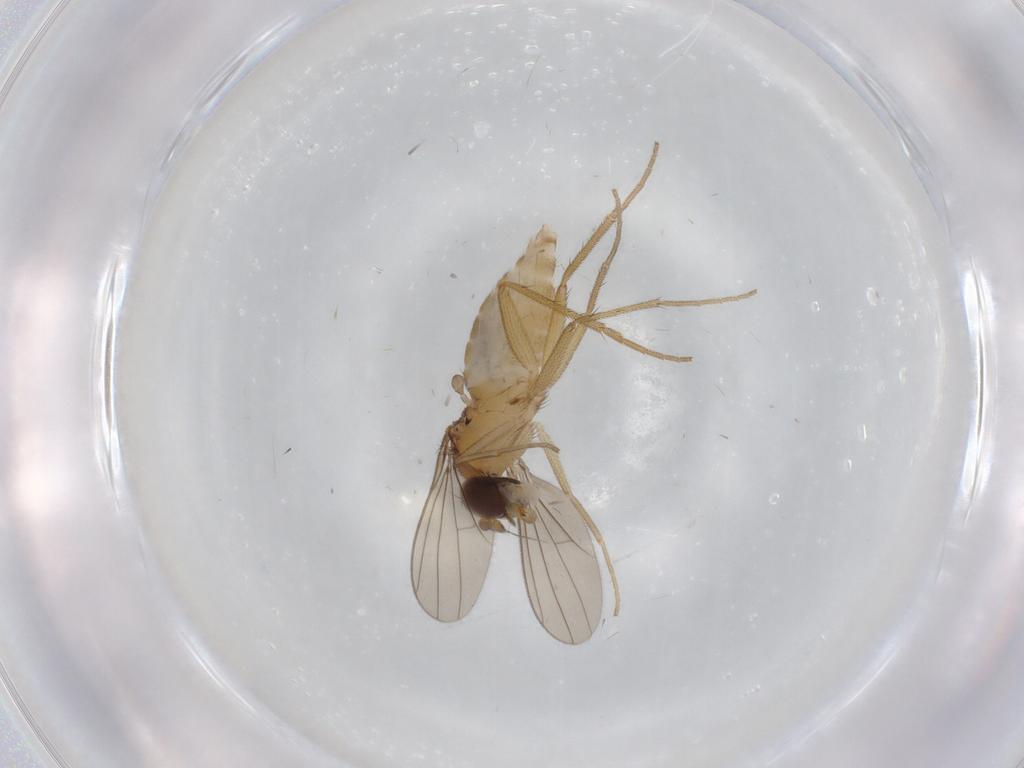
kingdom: Animalia
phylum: Arthropoda
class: Insecta
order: Diptera
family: Dolichopodidae
